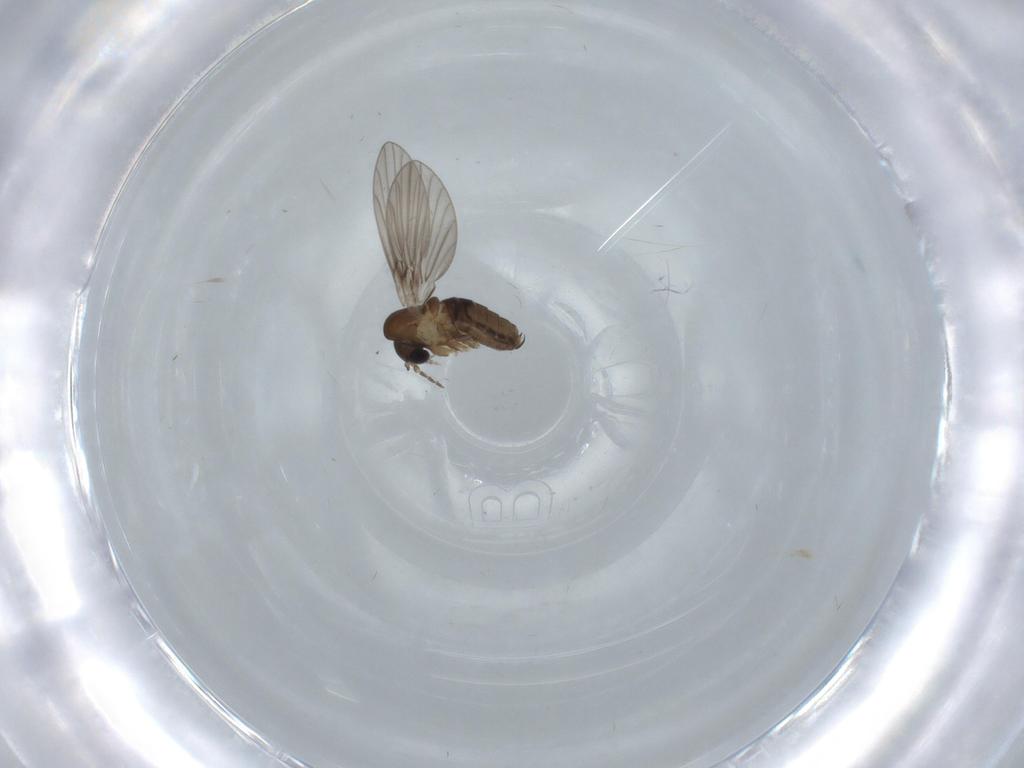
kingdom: Animalia
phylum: Arthropoda
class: Insecta
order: Diptera
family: Psychodidae
